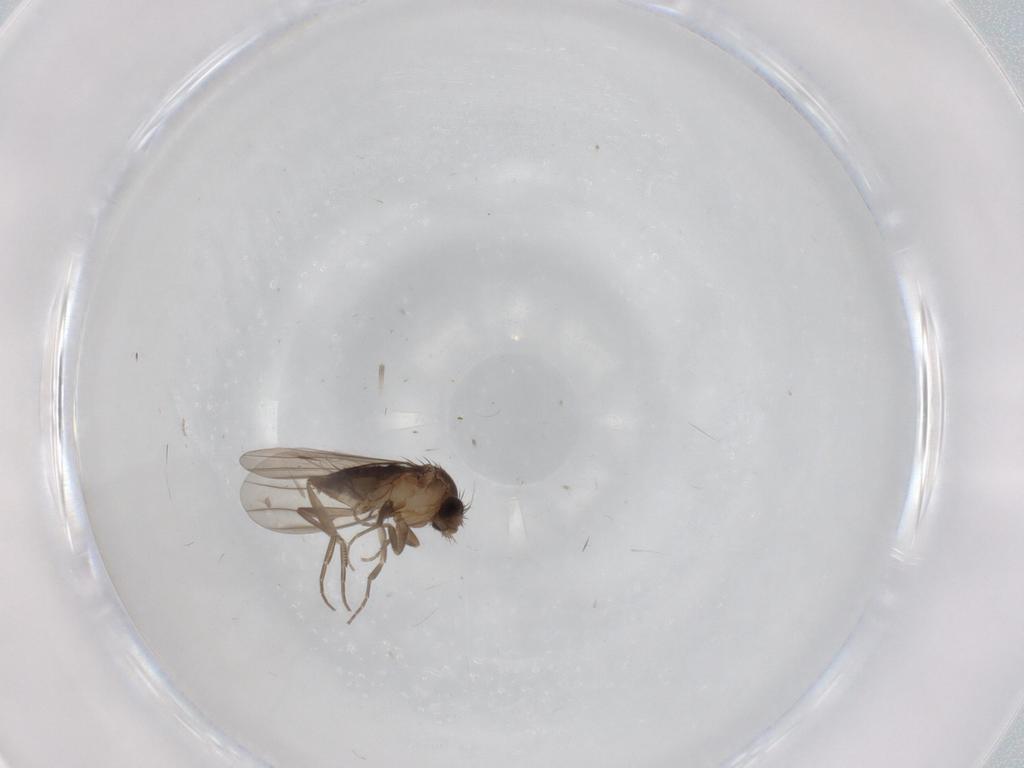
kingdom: Animalia
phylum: Arthropoda
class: Insecta
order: Diptera
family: Phoridae
